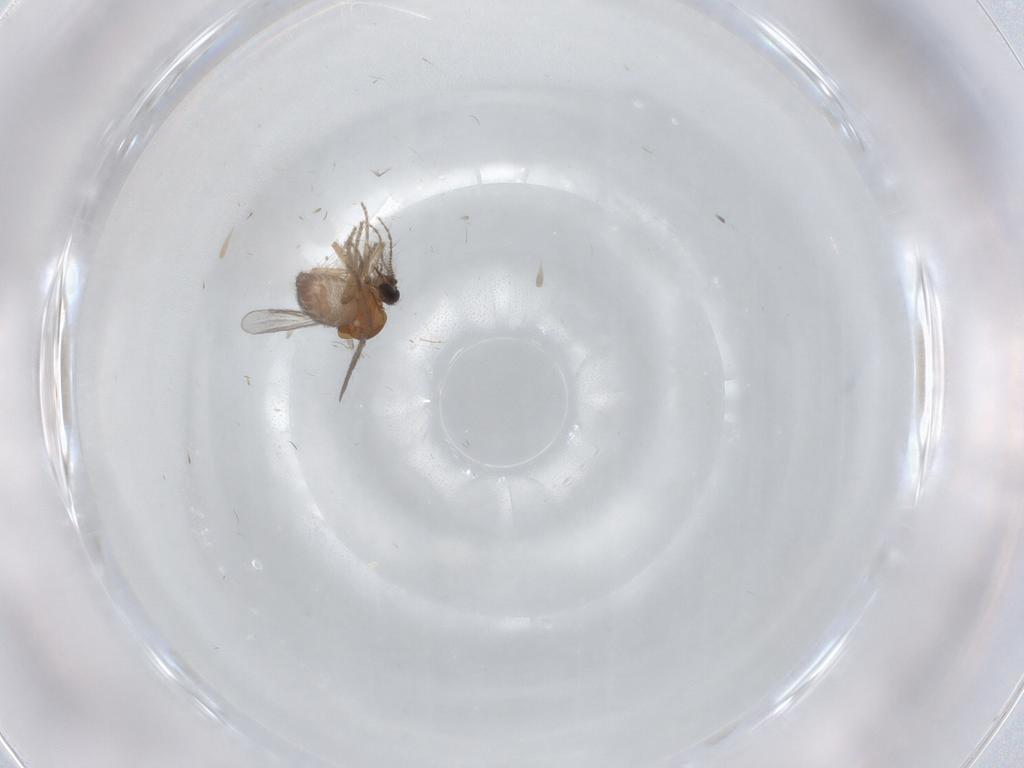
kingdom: Animalia
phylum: Arthropoda
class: Insecta
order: Diptera
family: Ceratopogonidae
